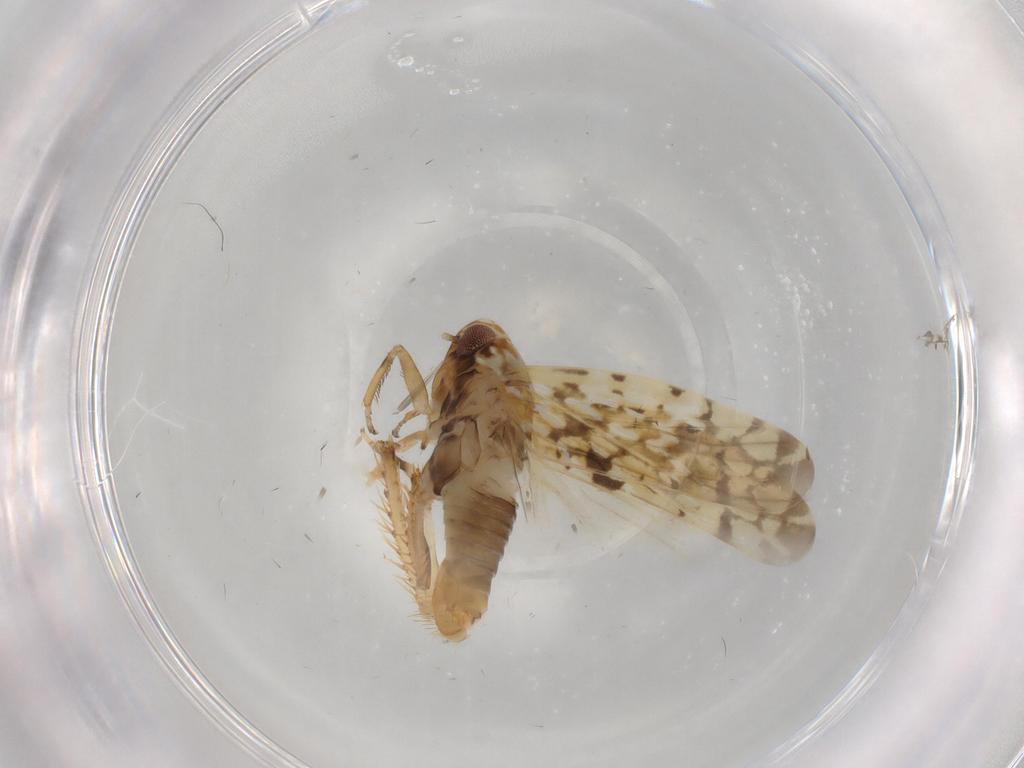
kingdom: Animalia
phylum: Arthropoda
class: Insecta
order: Hemiptera
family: Cicadellidae
